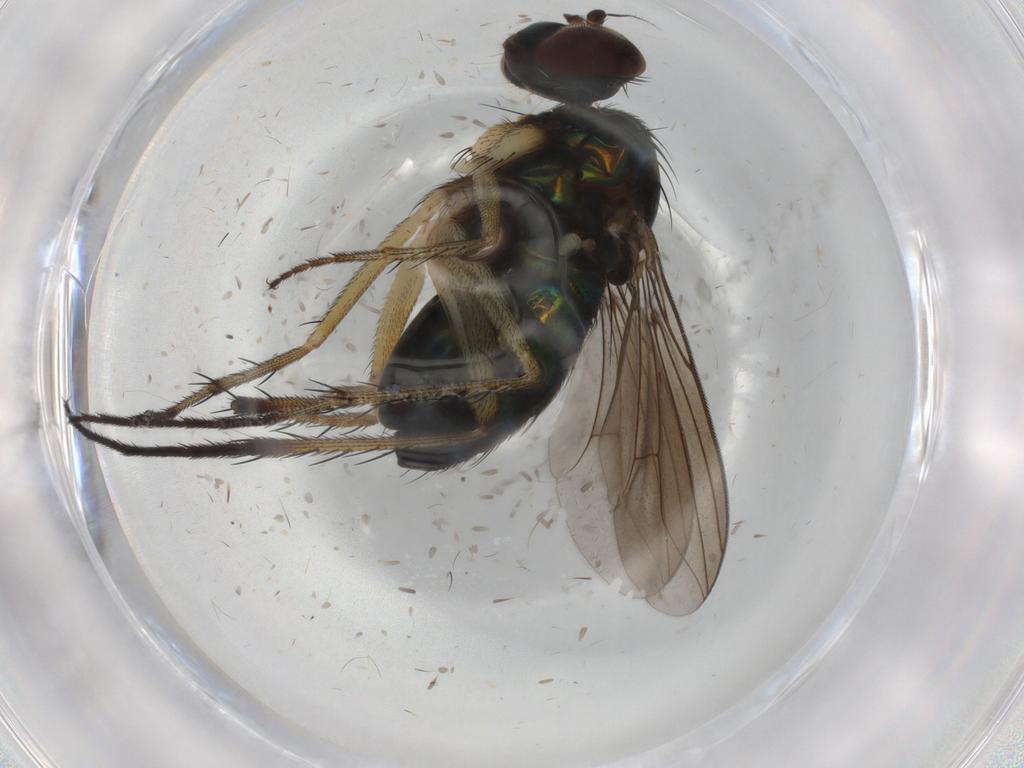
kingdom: Animalia
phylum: Arthropoda
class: Insecta
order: Diptera
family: Dolichopodidae
